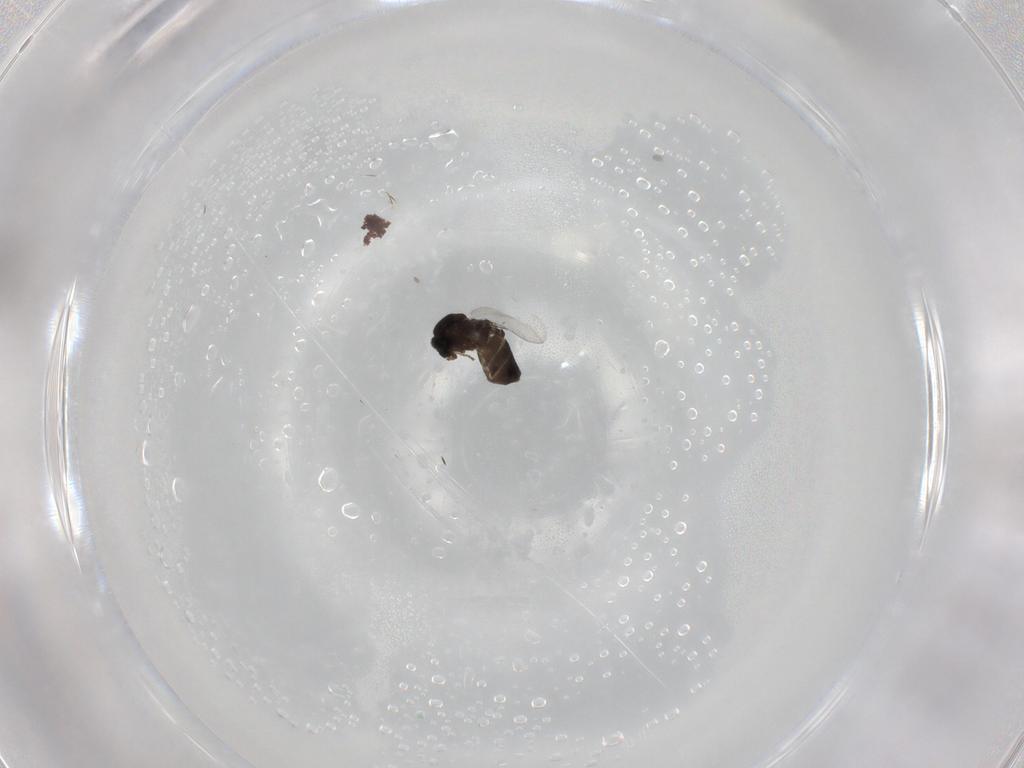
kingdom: Animalia
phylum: Arthropoda
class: Insecta
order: Diptera
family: Scatopsidae
